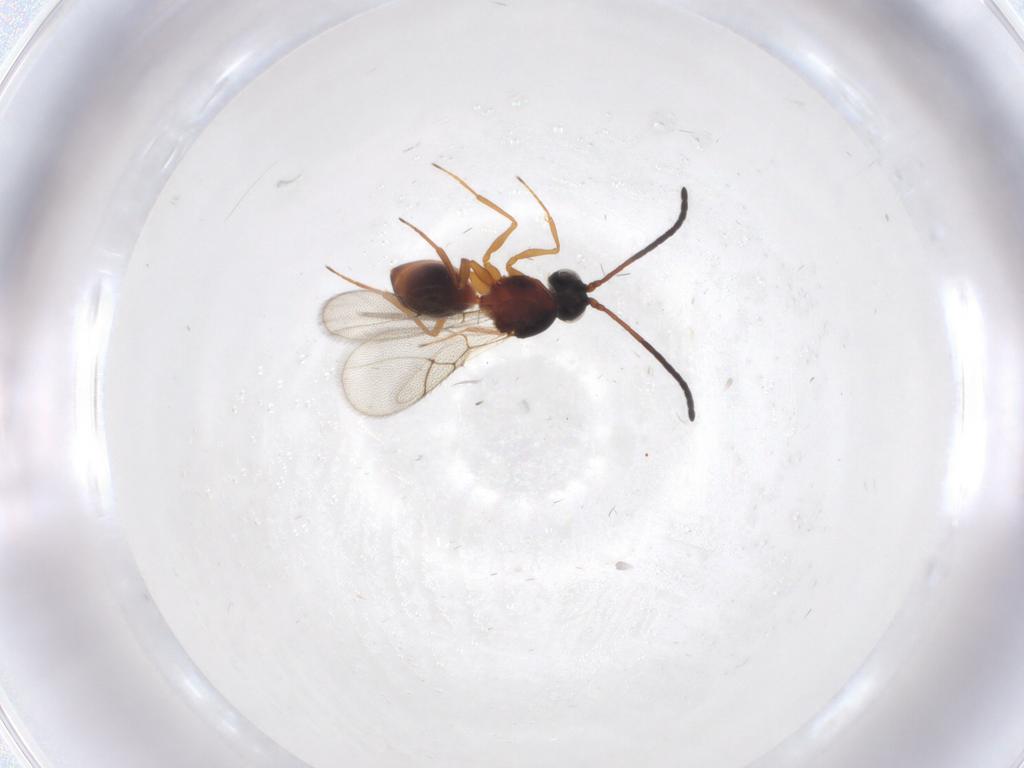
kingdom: Animalia
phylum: Arthropoda
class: Insecta
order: Hymenoptera
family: Figitidae
